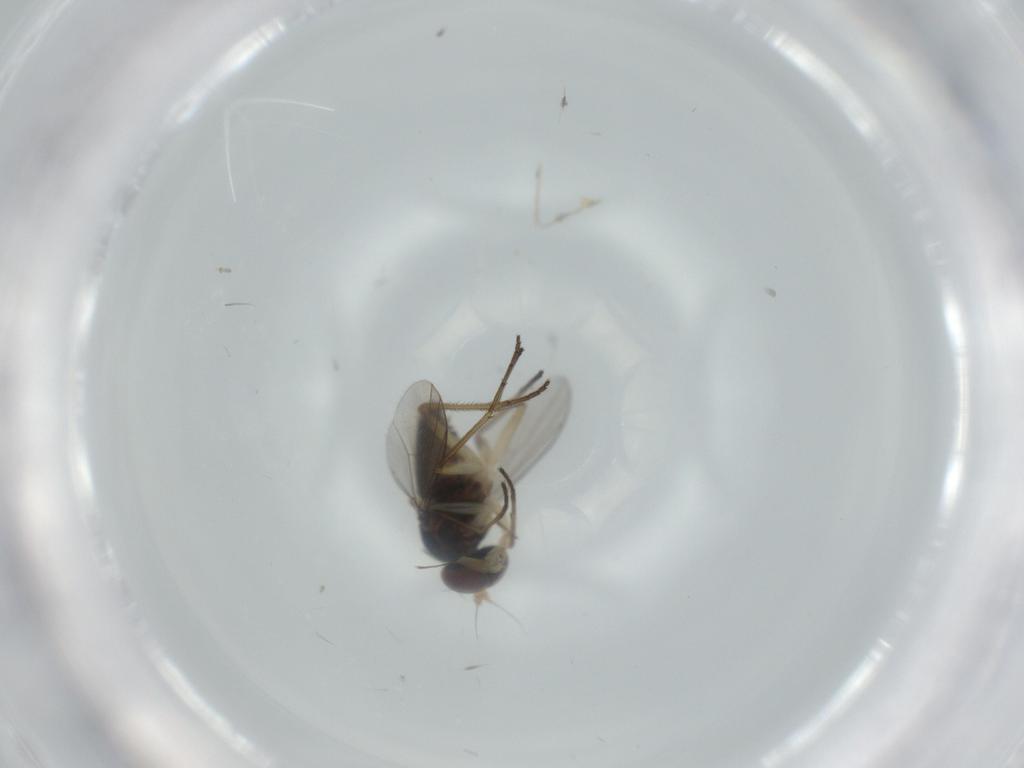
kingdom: Animalia
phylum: Arthropoda
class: Insecta
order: Diptera
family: Dolichopodidae
